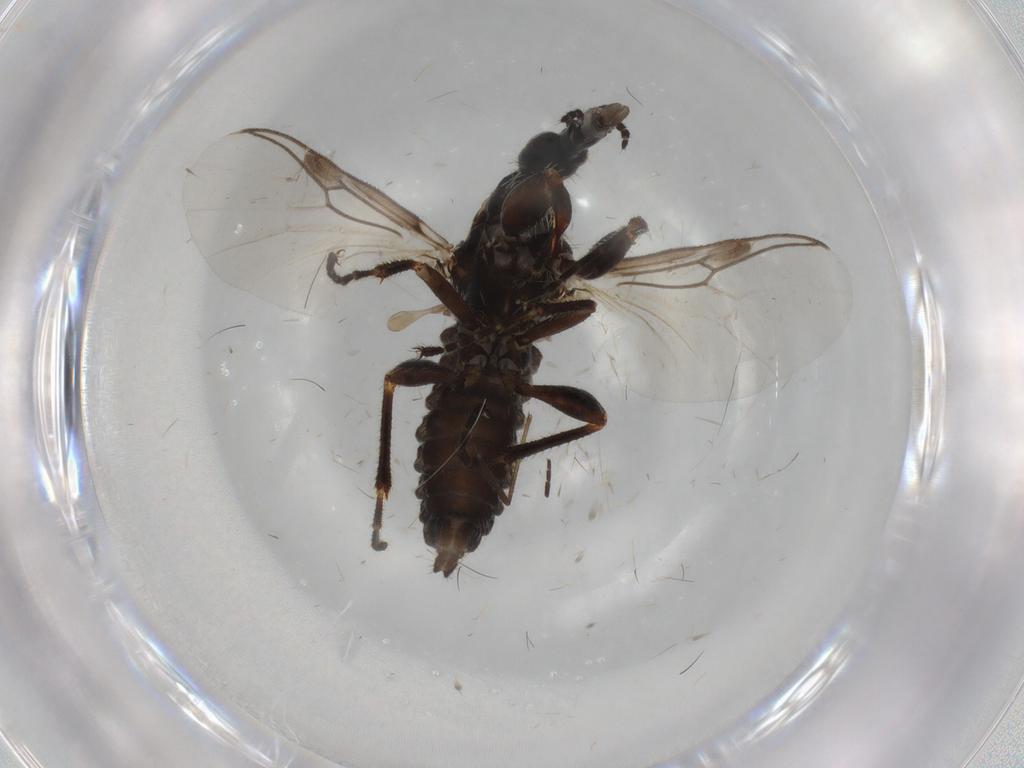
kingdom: Animalia
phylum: Arthropoda
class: Insecta
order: Diptera
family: Bibionidae
